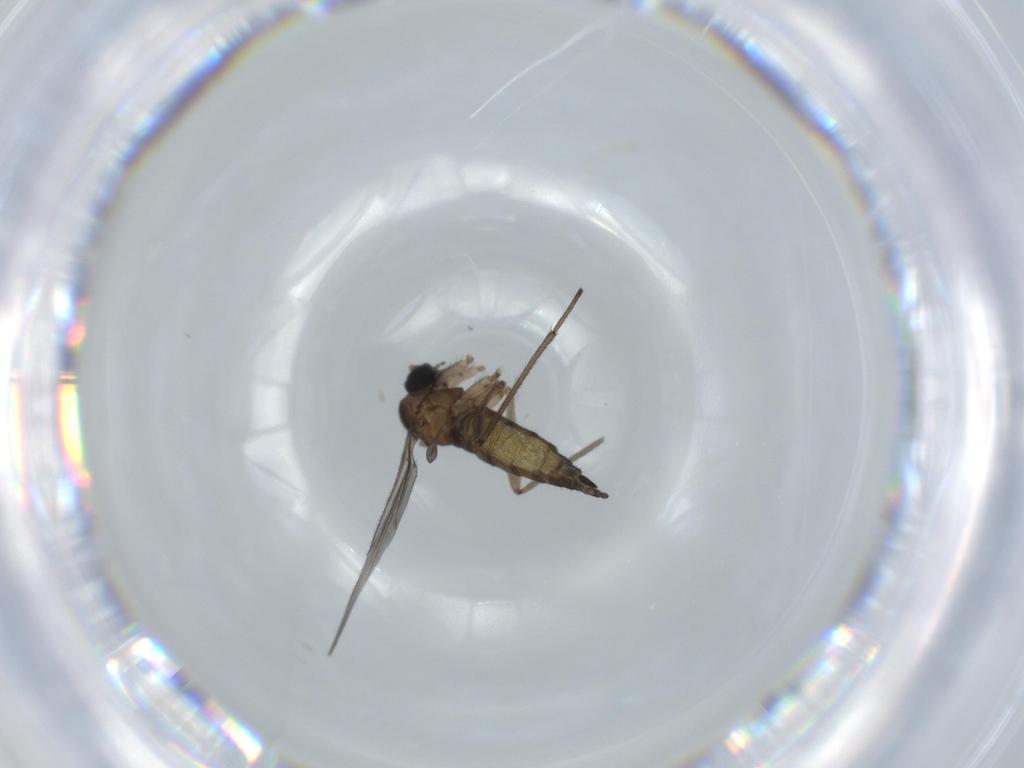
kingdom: Animalia
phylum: Arthropoda
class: Insecta
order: Diptera
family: Sciaridae
